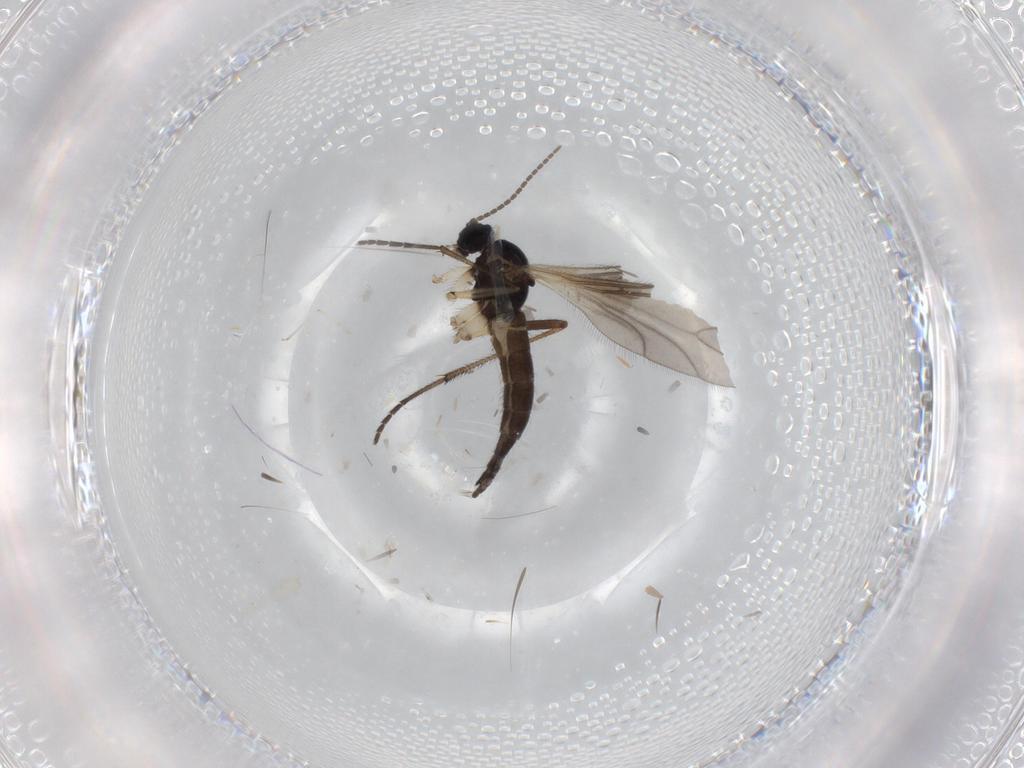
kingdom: Animalia
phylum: Arthropoda
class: Insecta
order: Diptera
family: Sciaridae
